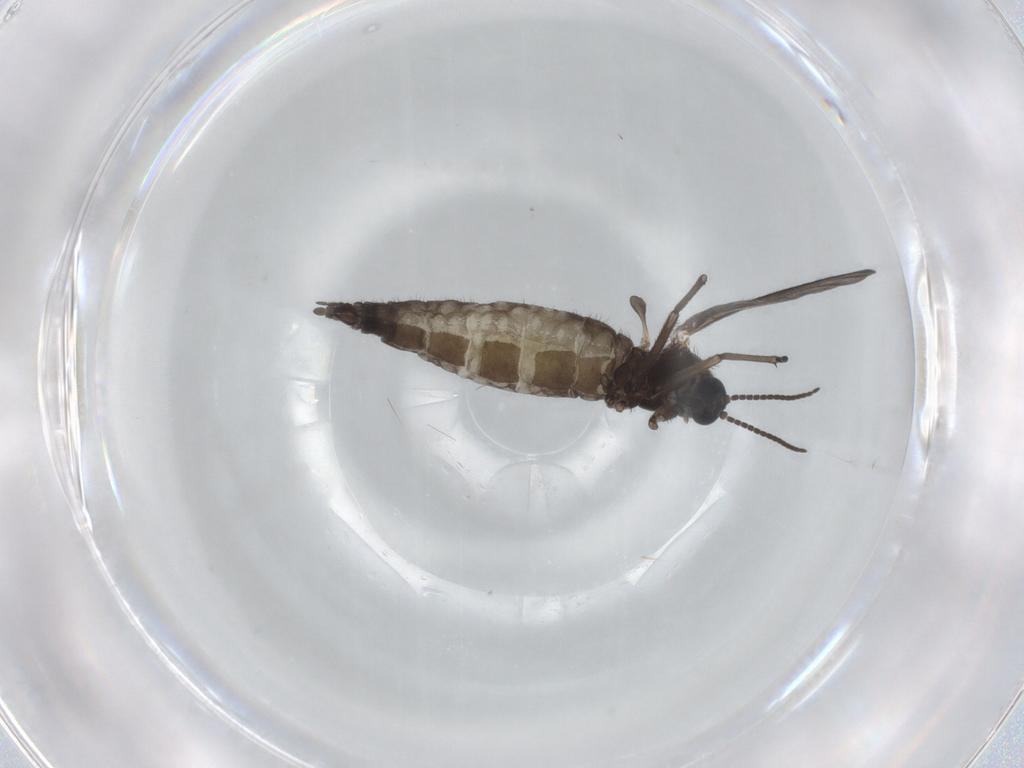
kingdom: Animalia
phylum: Arthropoda
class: Insecta
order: Diptera
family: Sciaridae
